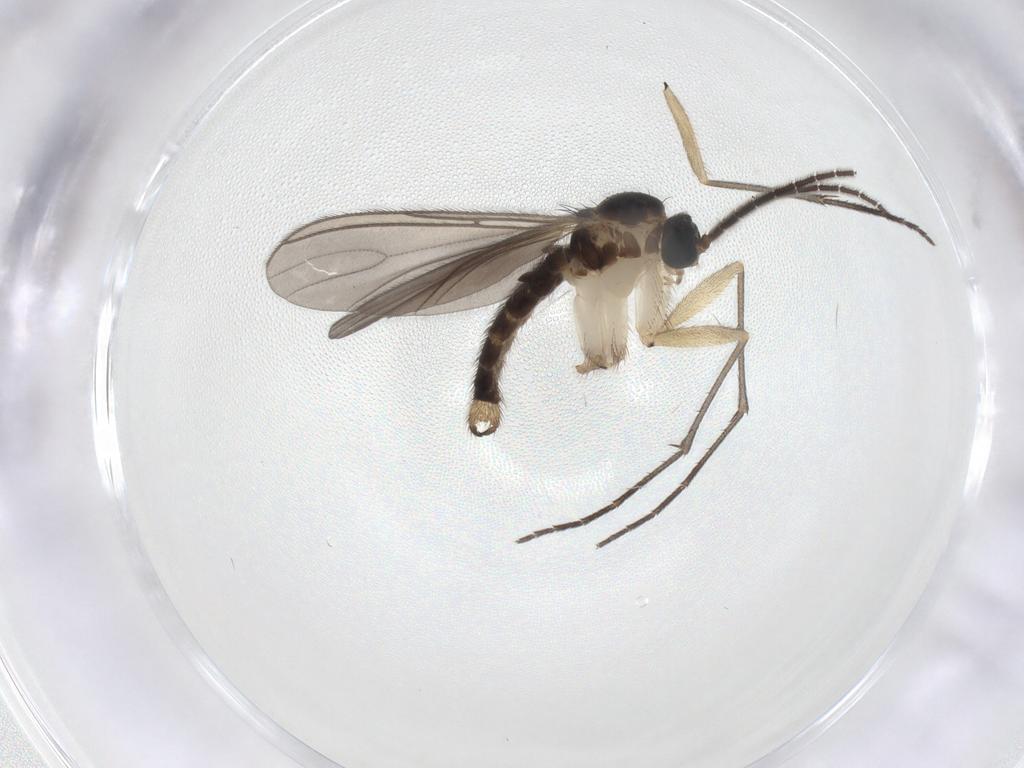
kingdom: Animalia
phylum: Arthropoda
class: Insecta
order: Diptera
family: Sciaridae
